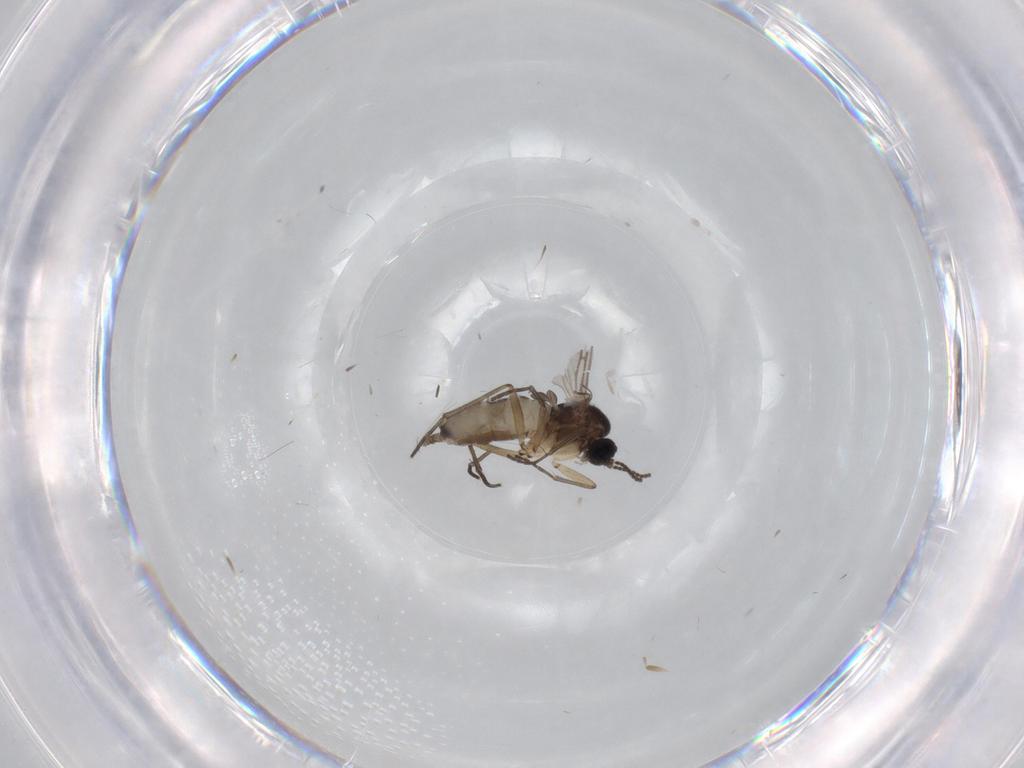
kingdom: Animalia
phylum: Arthropoda
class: Insecta
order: Diptera
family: Sciaridae
